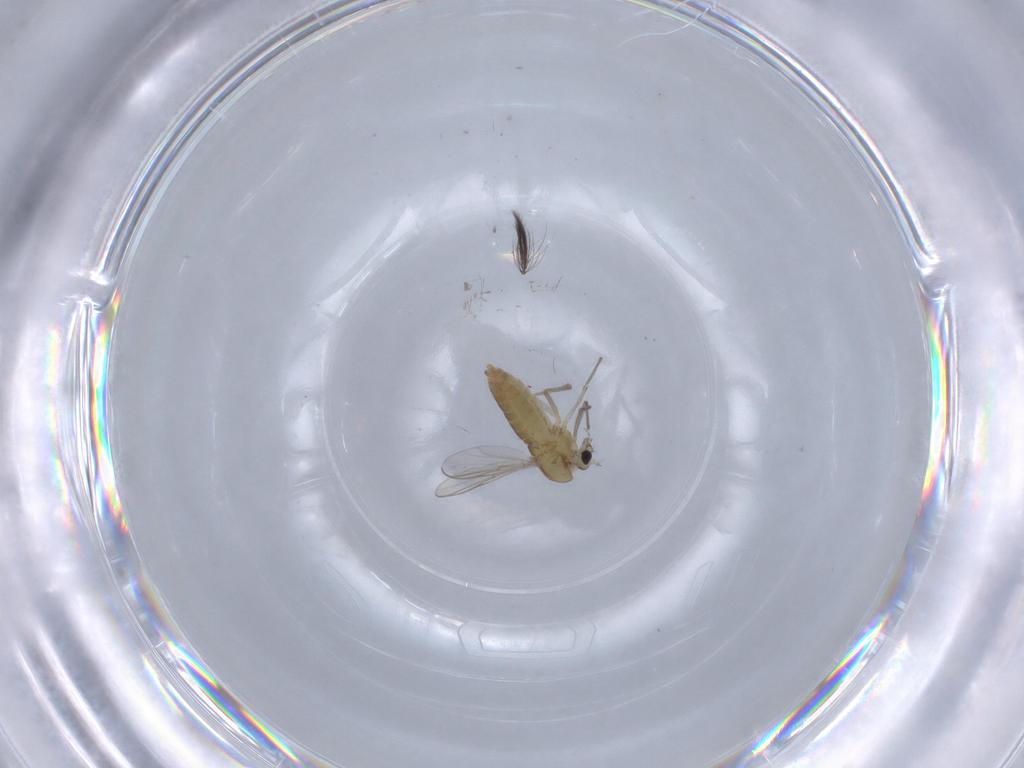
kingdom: Animalia
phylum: Arthropoda
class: Insecta
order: Diptera
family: Chironomidae
